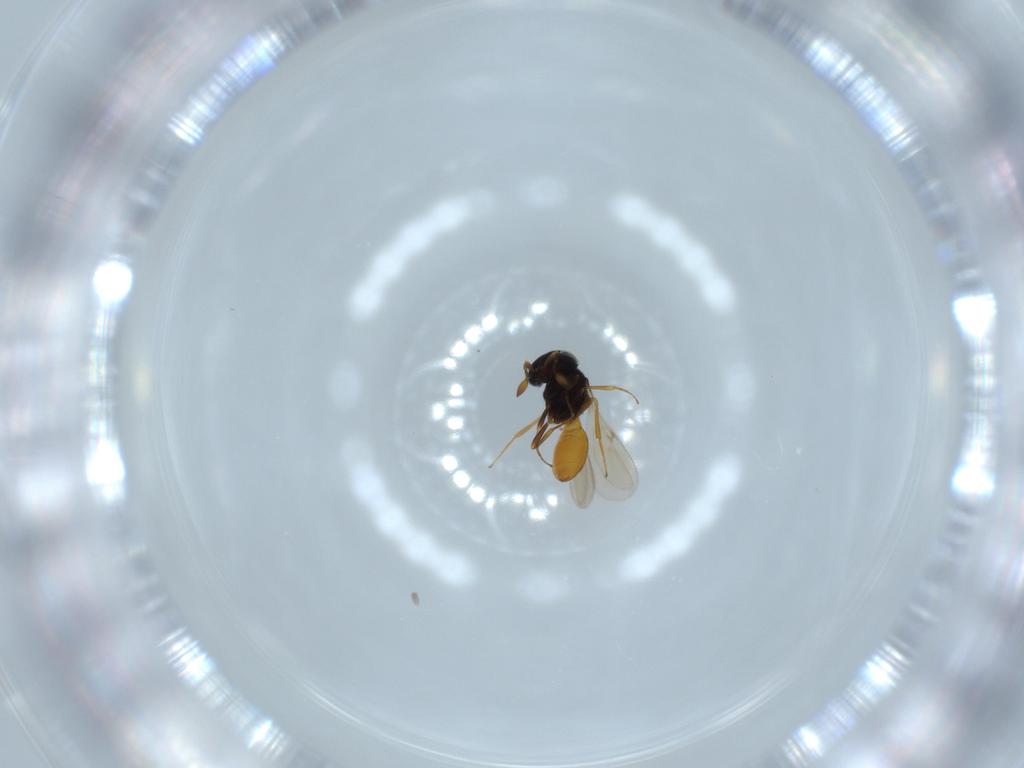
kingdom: Animalia
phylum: Arthropoda
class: Insecta
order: Hymenoptera
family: Scelionidae
